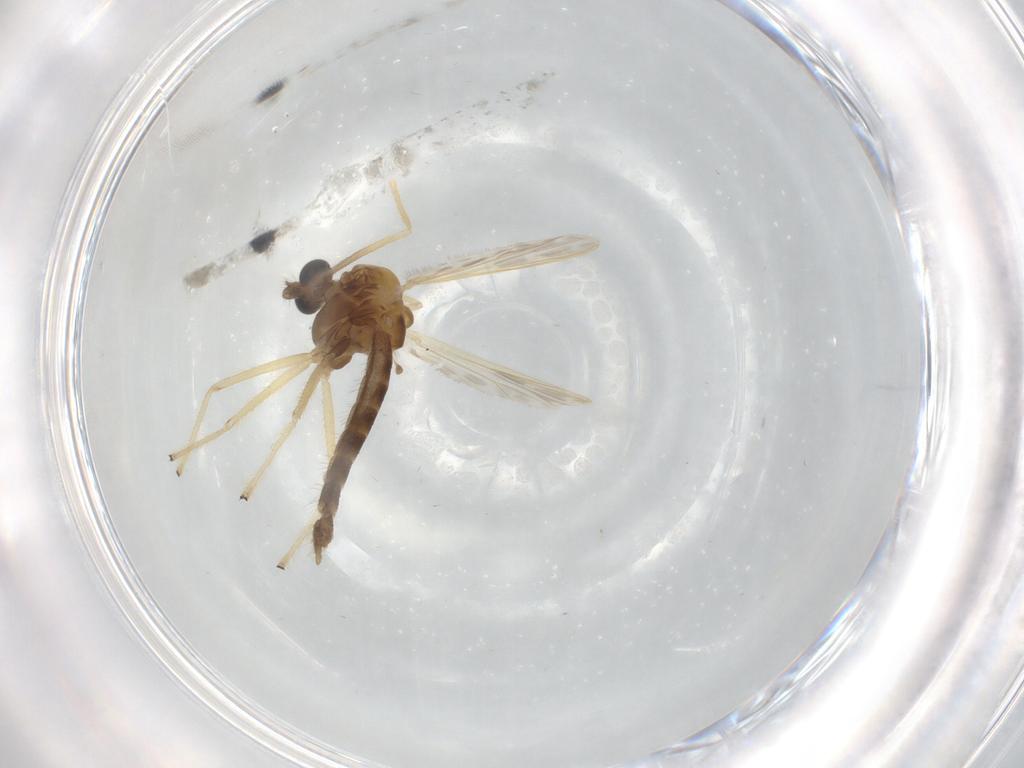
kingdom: Animalia
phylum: Arthropoda
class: Insecta
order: Diptera
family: Chironomidae
